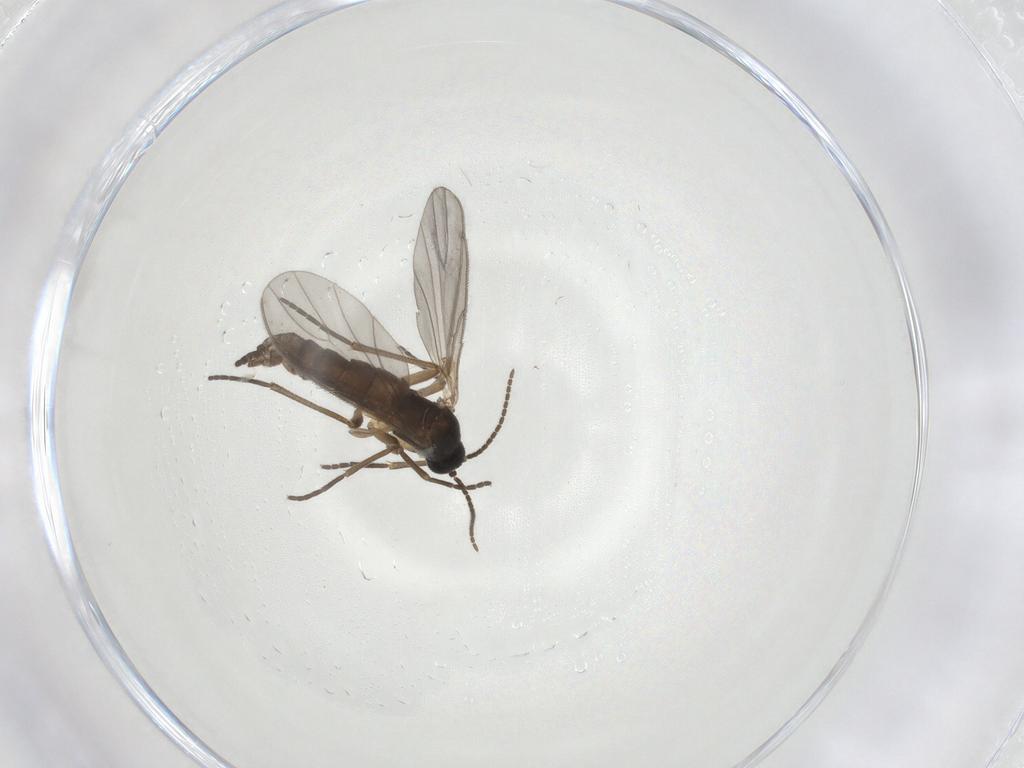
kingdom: Animalia
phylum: Arthropoda
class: Insecta
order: Diptera
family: Sciaridae
